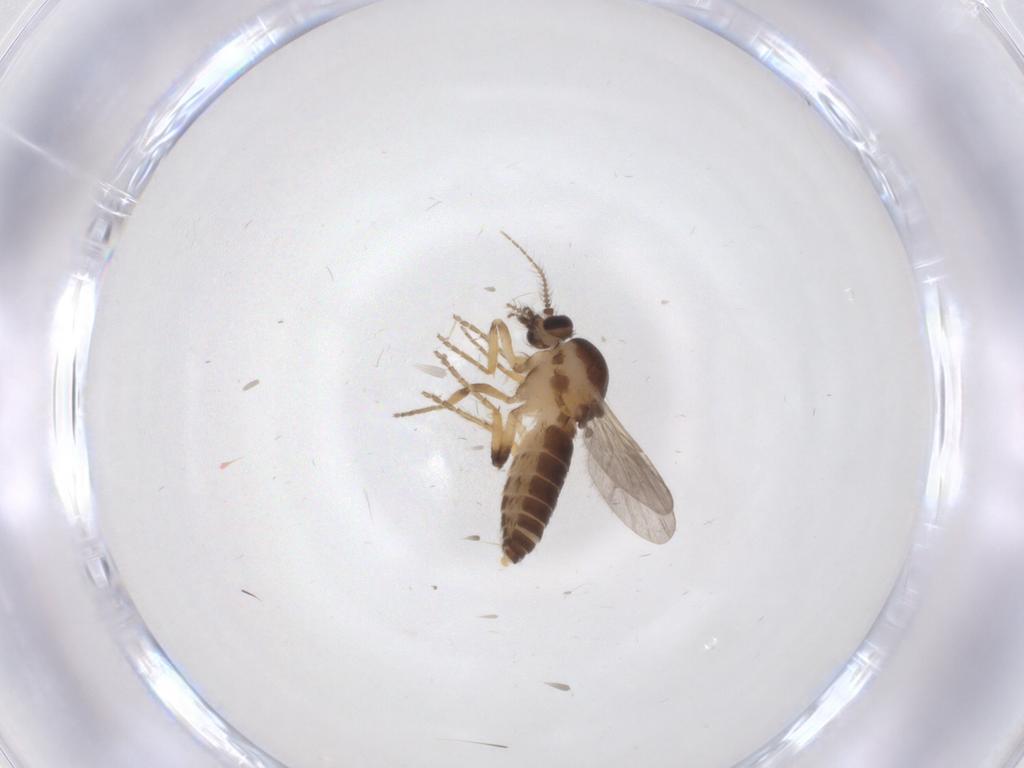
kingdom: Animalia
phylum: Arthropoda
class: Insecta
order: Diptera
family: Ceratopogonidae
